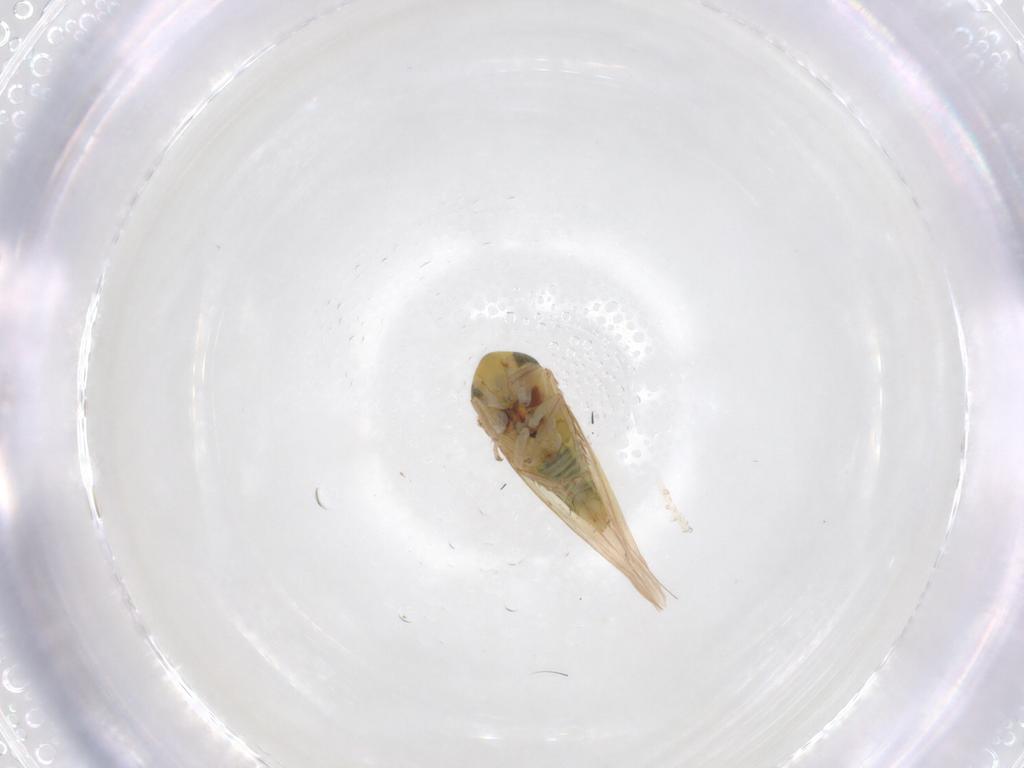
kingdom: Animalia
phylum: Arthropoda
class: Insecta
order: Hemiptera
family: Cicadellidae
